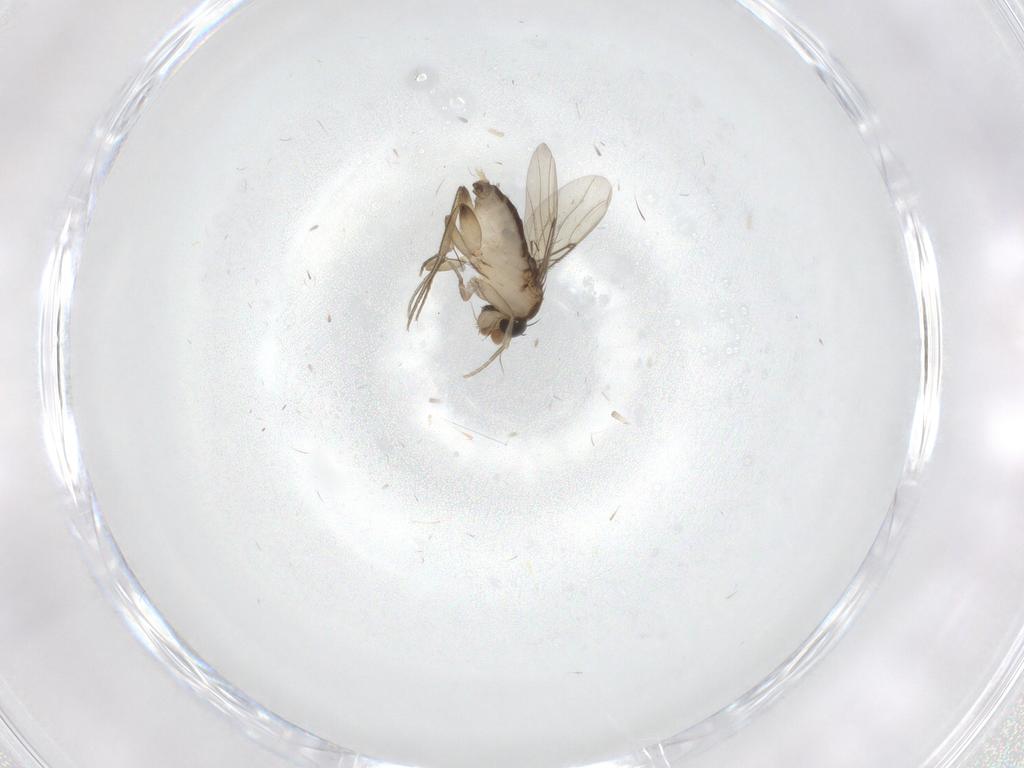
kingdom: Animalia
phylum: Arthropoda
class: Insecta
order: Diptera
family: Phoridae
